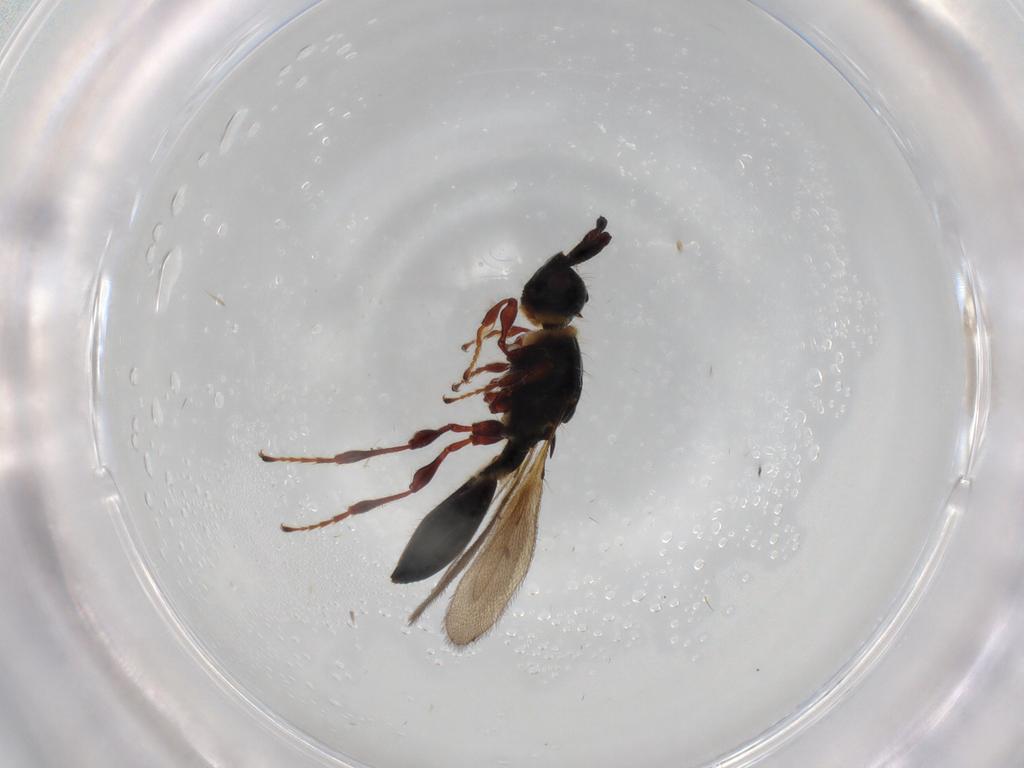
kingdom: Animalia
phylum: Arthropoda
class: Insecta
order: Hymenoptera
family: Diapriidae
